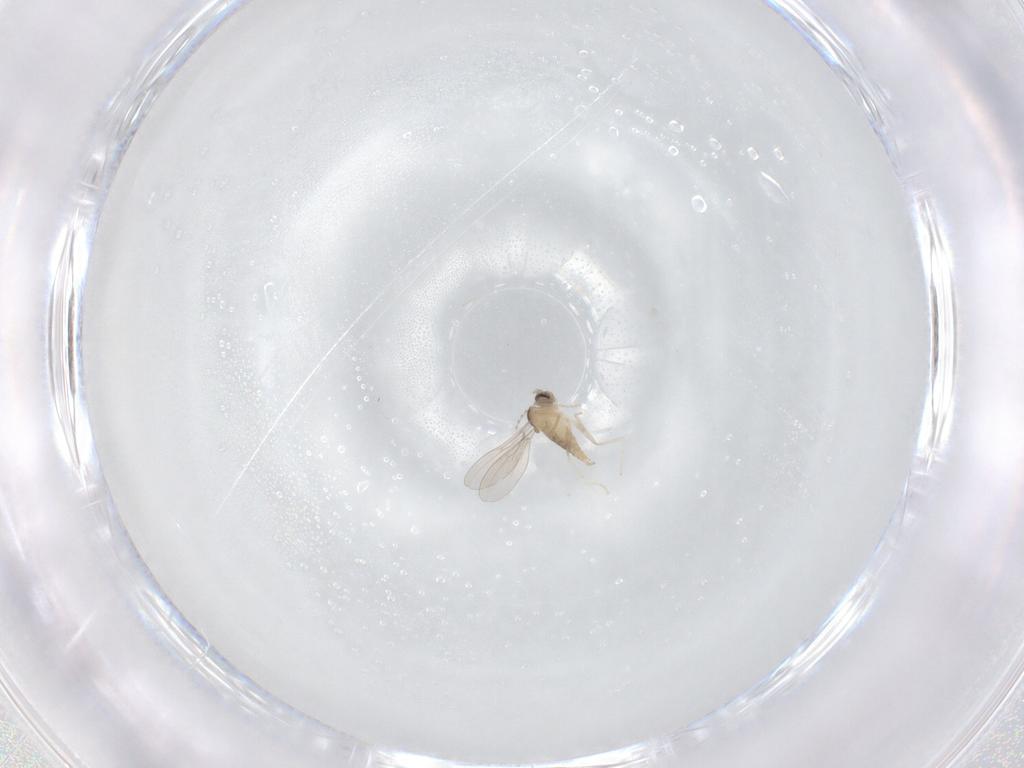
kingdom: Animalia
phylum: Arthropoda
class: Insecta
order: Diptera
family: Cecidomyiidae
